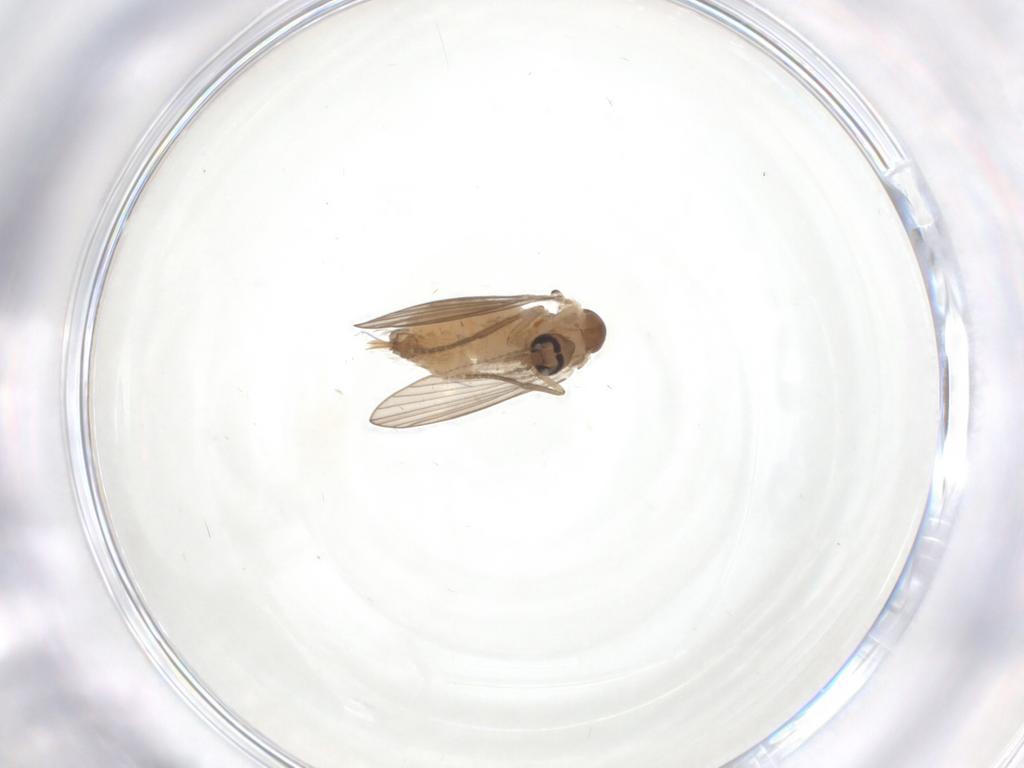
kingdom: Animalia
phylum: Arthropoda
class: Insecta
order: Diptera
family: Psychodidae
